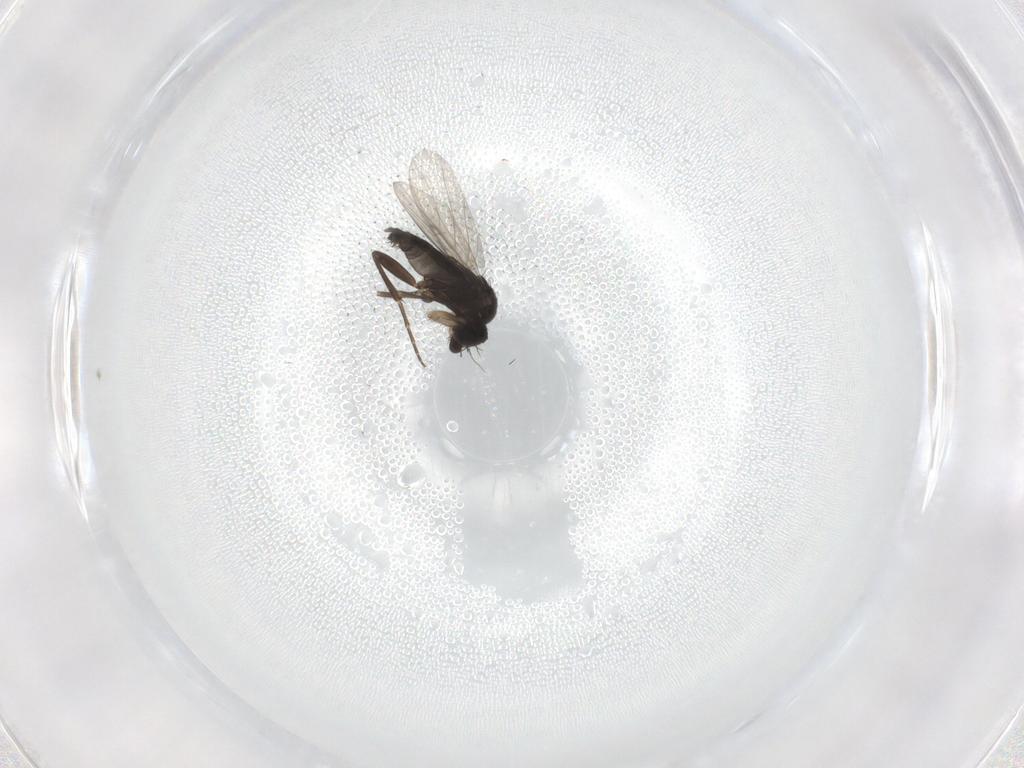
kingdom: Animalia
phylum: Arthropoda
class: Insecta
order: Diptera
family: Phoridae
